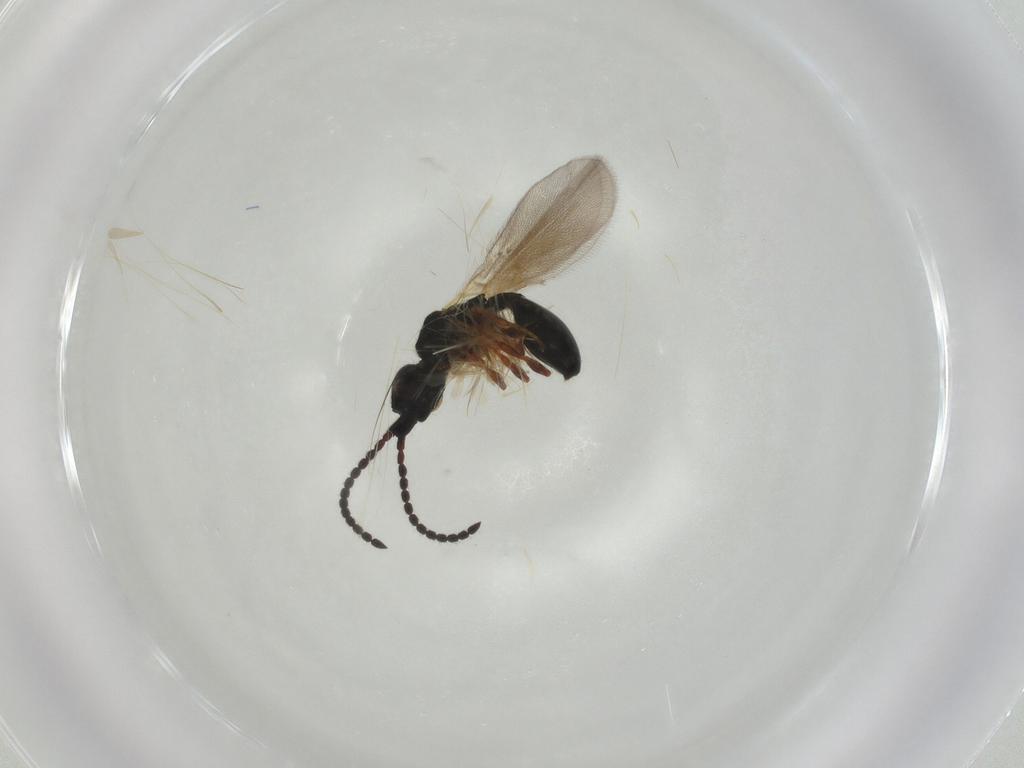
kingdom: Animalia
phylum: Arthropoda
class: Insecta
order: Hymenoptera
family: Diapriidae
